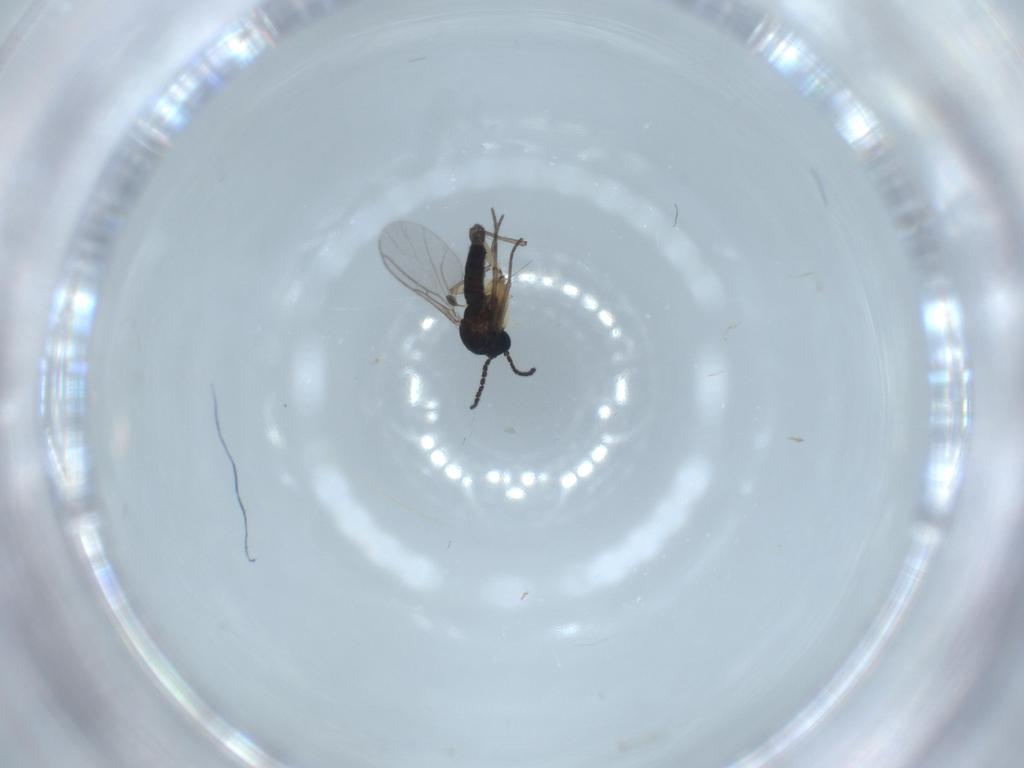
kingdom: Animalia
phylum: Arthropoda
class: Insecta
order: Diptera
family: Sciaridae
